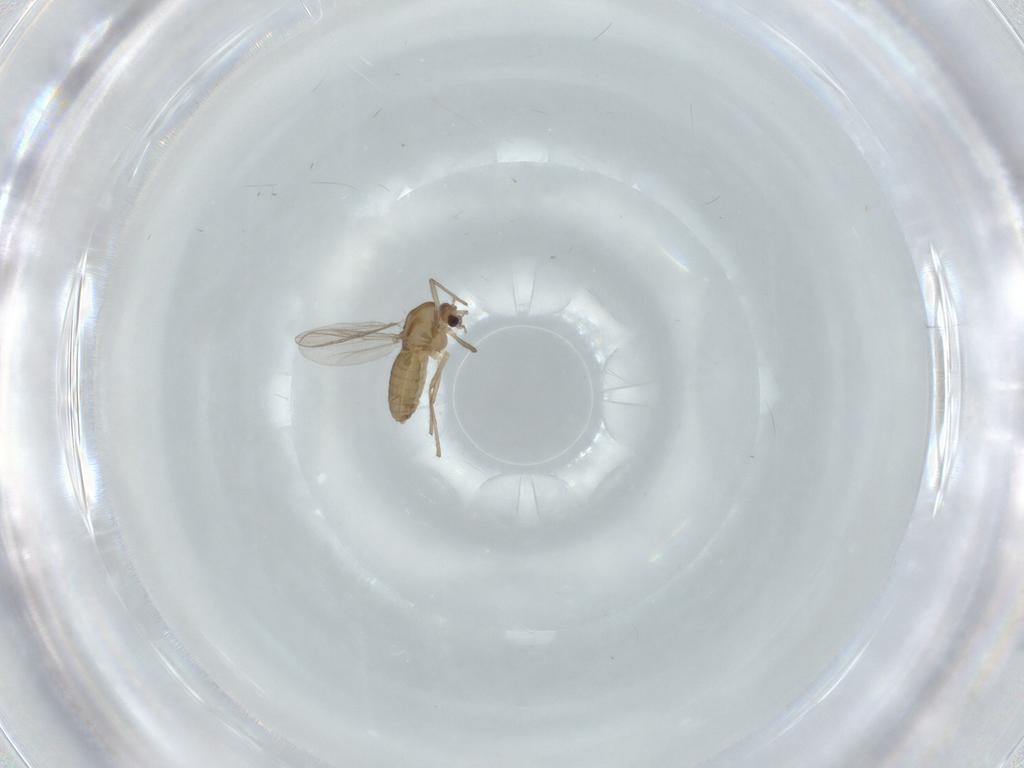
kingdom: Animalia
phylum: Arthropoda
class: Insecta
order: Diptera
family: Chironomidae
